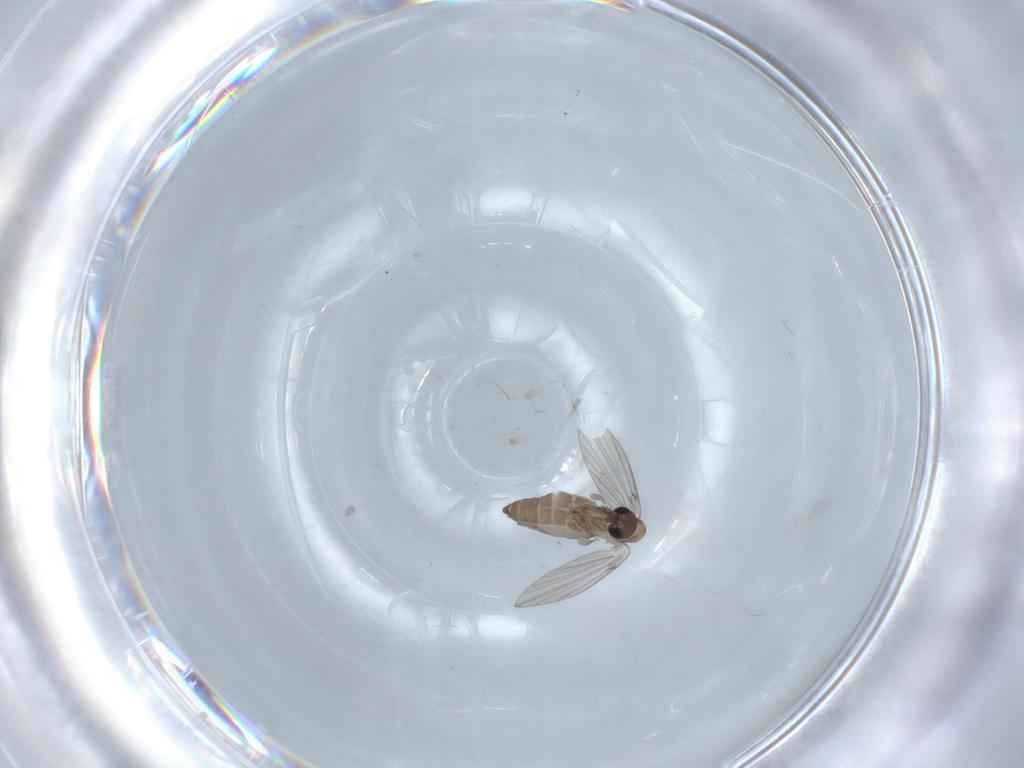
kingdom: Animalia
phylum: Arthropoda
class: Insecta
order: Diptera
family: Psychodidae
